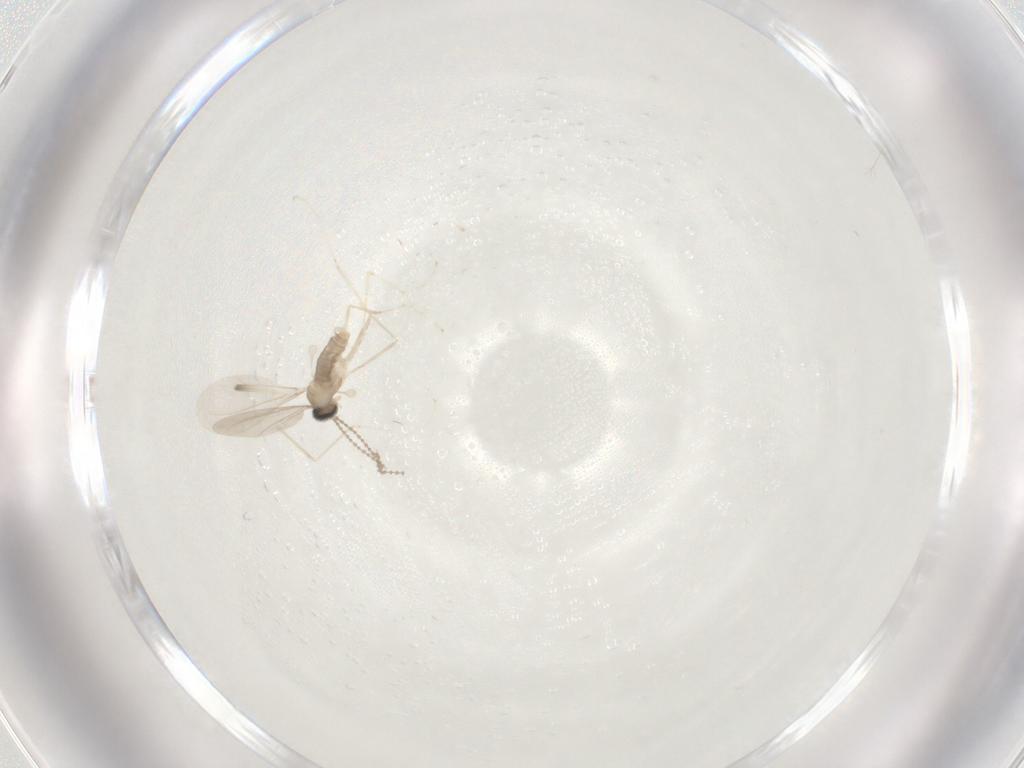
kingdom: Animalia
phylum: Arthropoda
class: Insecta
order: Diptera
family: Cecidomyiidae
